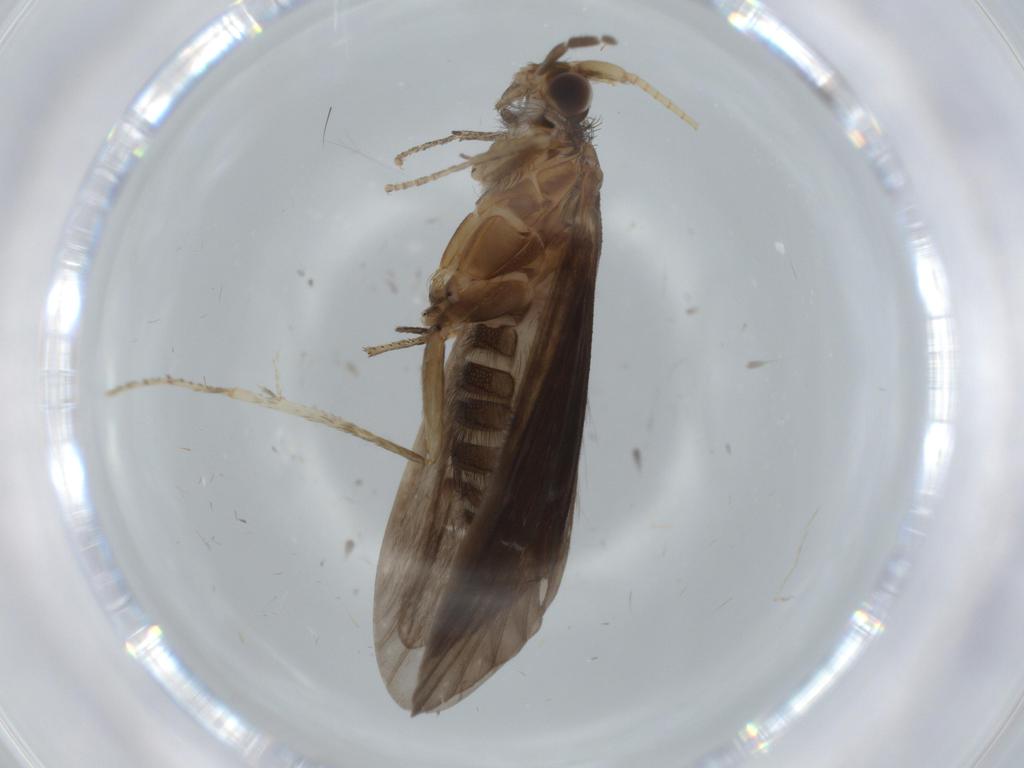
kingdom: Animalia
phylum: Arthropoda
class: Insecta
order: Trichoptera
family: Helicopsychidae
